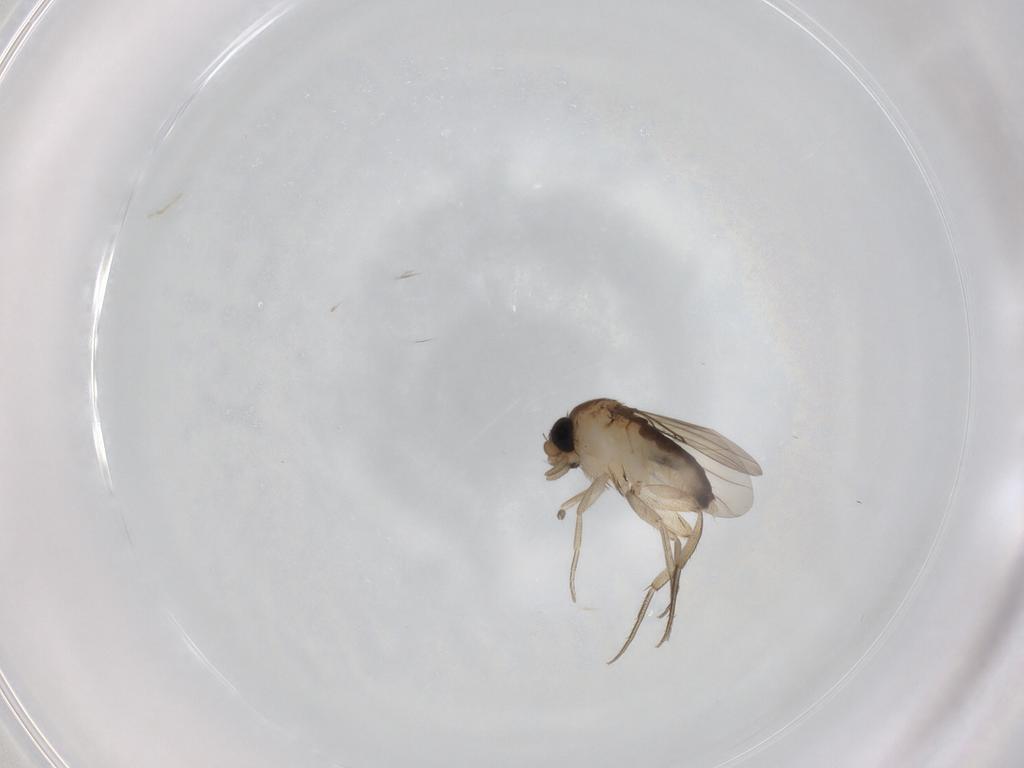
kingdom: Animalia
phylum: Arthropoda
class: Insecta
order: Diptera
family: Phoridae
